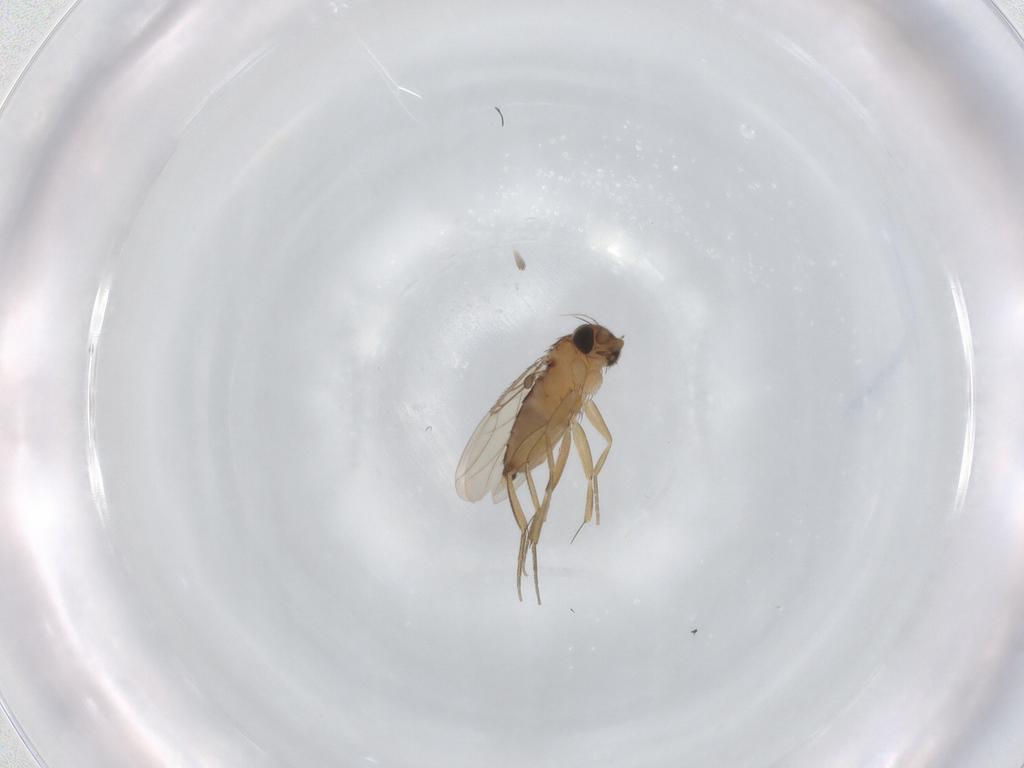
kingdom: Animalia
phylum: Arthropoda
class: Insecta
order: Diptera
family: Phoridae
